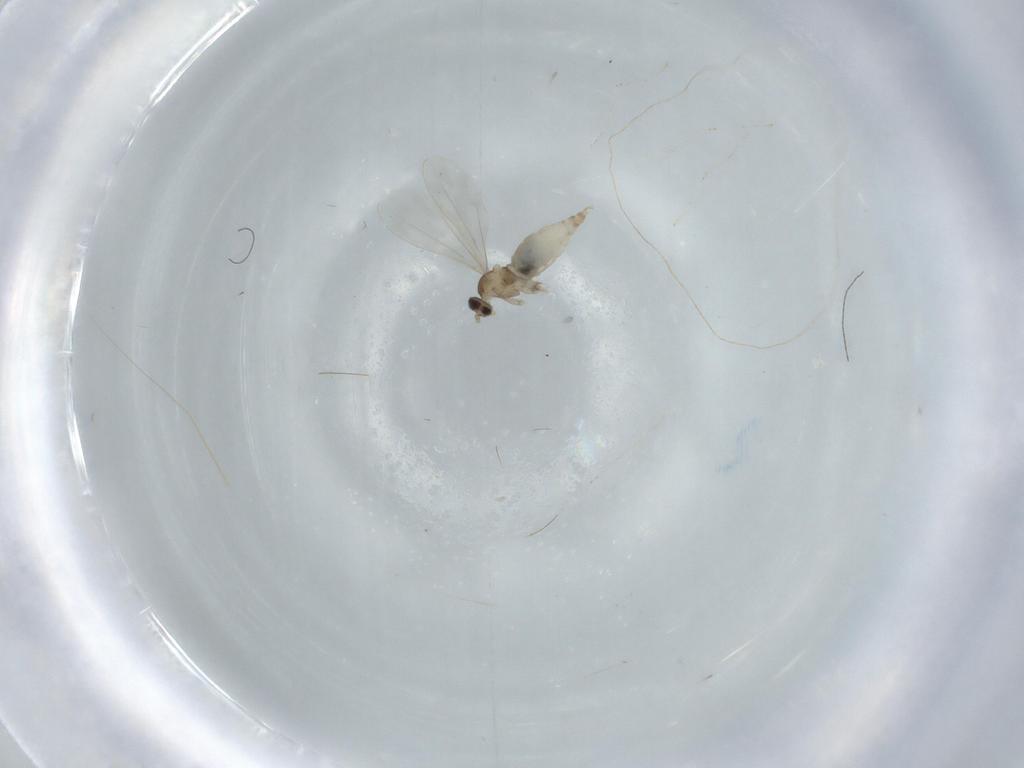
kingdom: Animalia
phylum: Arthropoda
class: Insecta
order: Diptera
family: Cecidomyiidae
